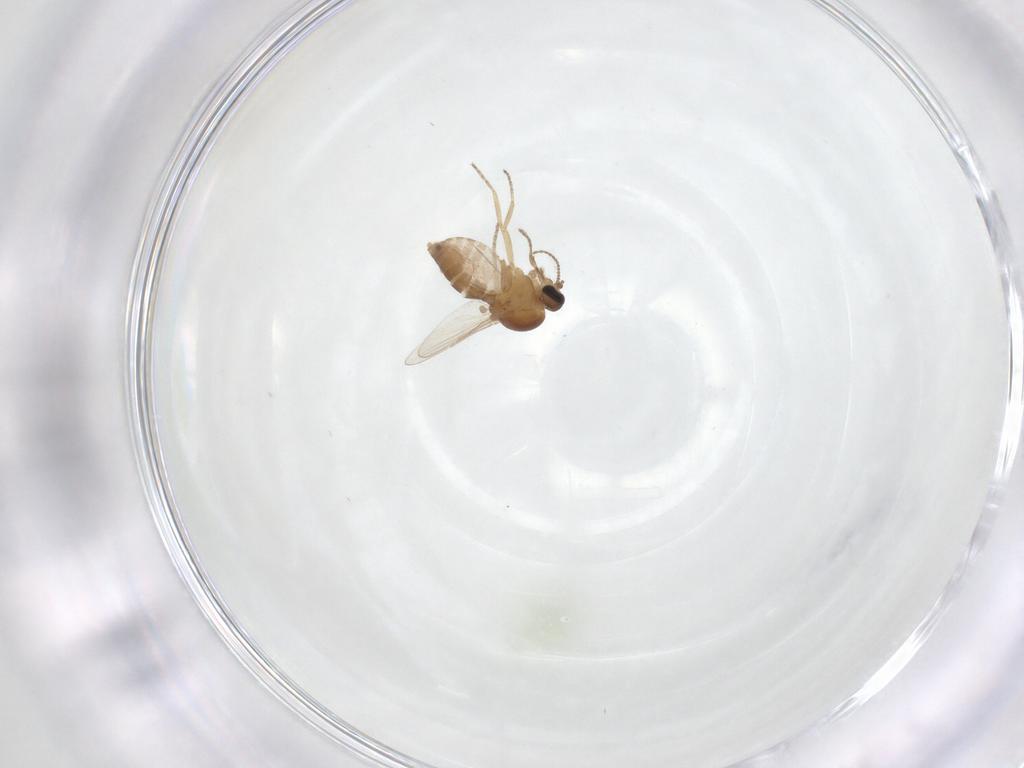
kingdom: Animalia
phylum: Arthropoda
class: Insecta
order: Diptera
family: Ceratopogonidae
